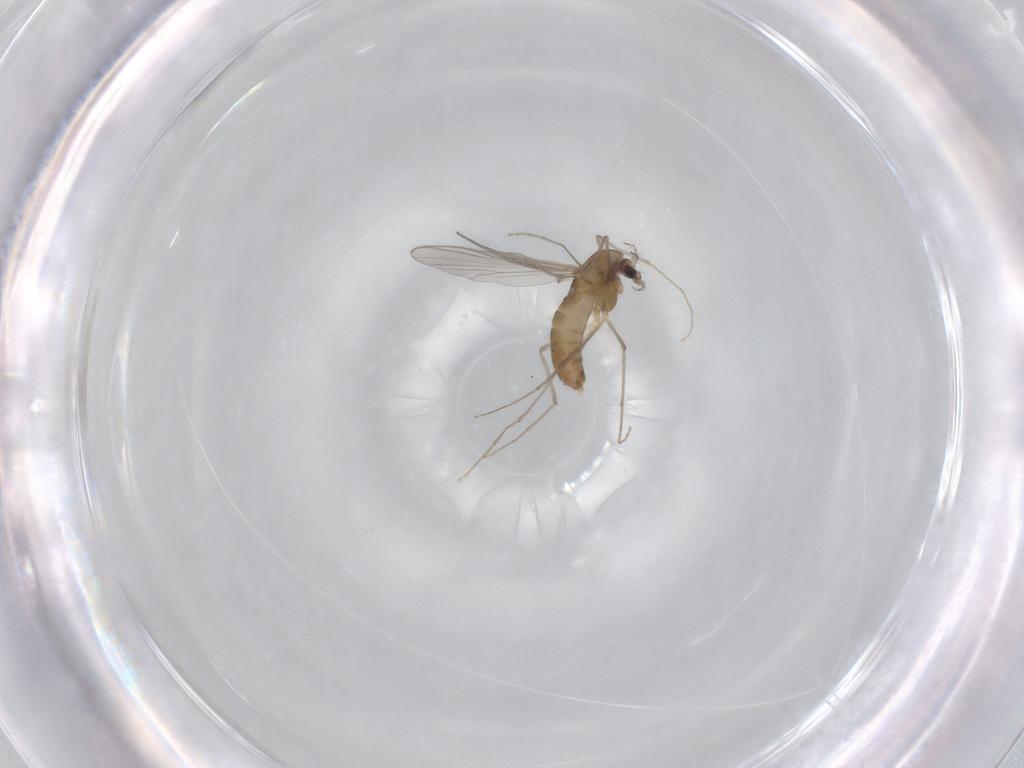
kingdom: Animalia
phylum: Arthropoda
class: Insecta
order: Diptera
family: Chironomidae
